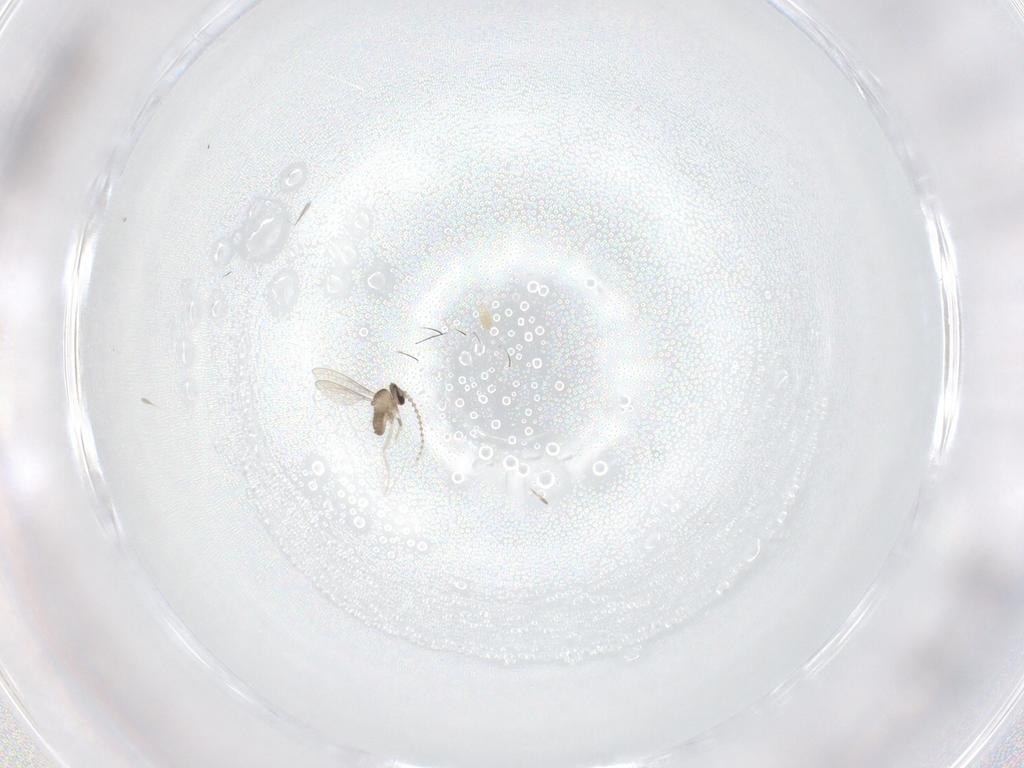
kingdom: Animalia
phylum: Arthropoda
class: Insecta
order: Diptera
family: Cecidomyiidae
